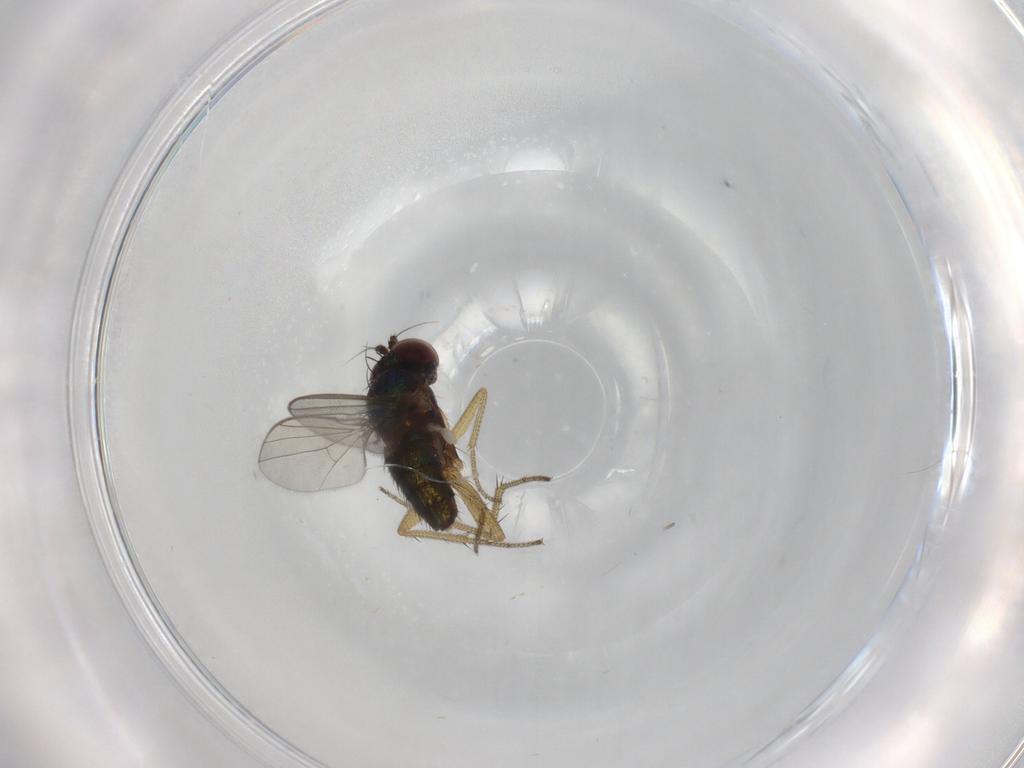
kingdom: Animalia
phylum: Arthropoda
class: Insecta
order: Diptera
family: Dolichopodidae
